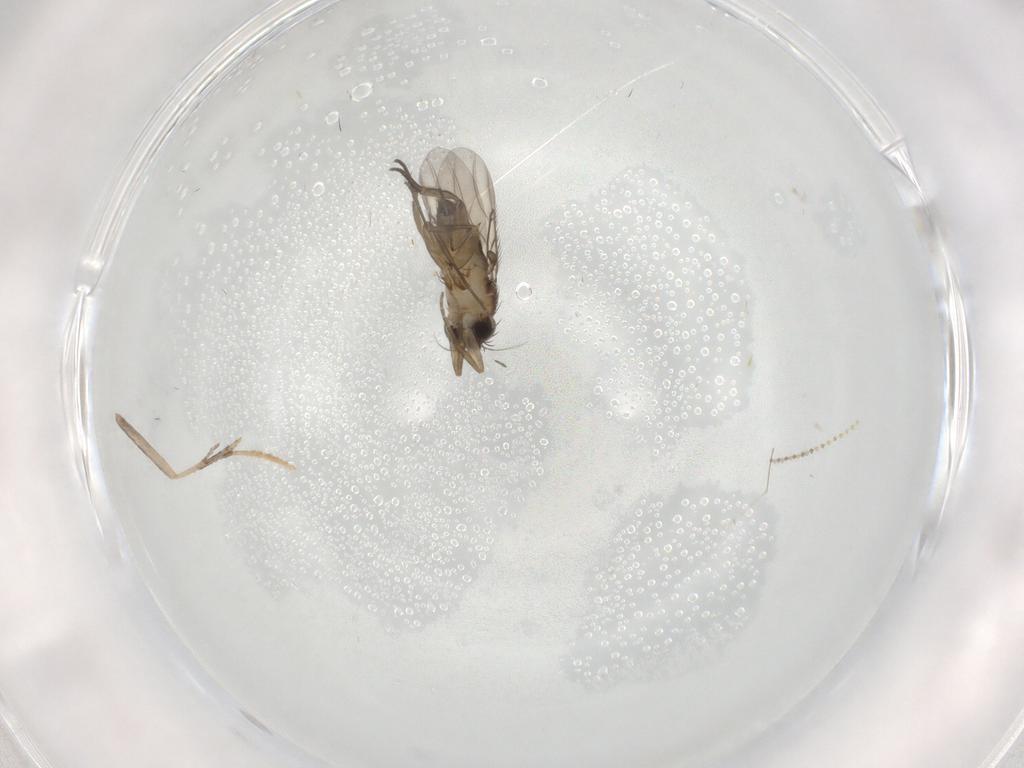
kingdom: Animalia
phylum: Arthropoda
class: Insecta
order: Diptera
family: Phoridae
